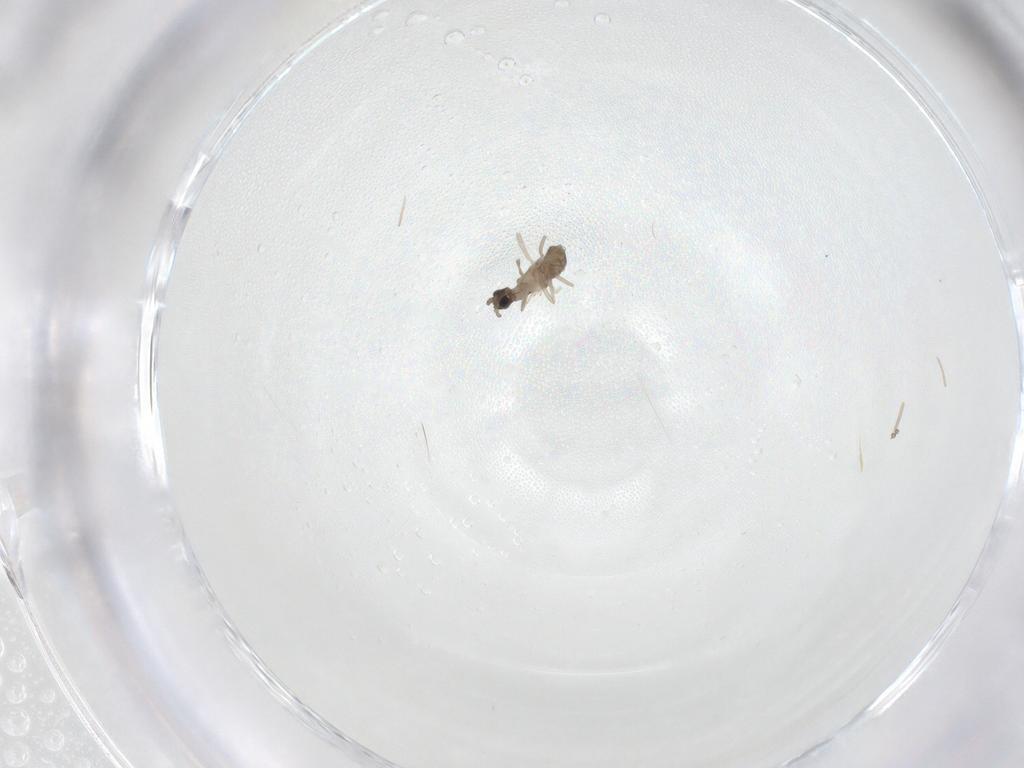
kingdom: Animalia
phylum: Arthropoda
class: Insecta
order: Diptera
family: Cecidomyiidae
